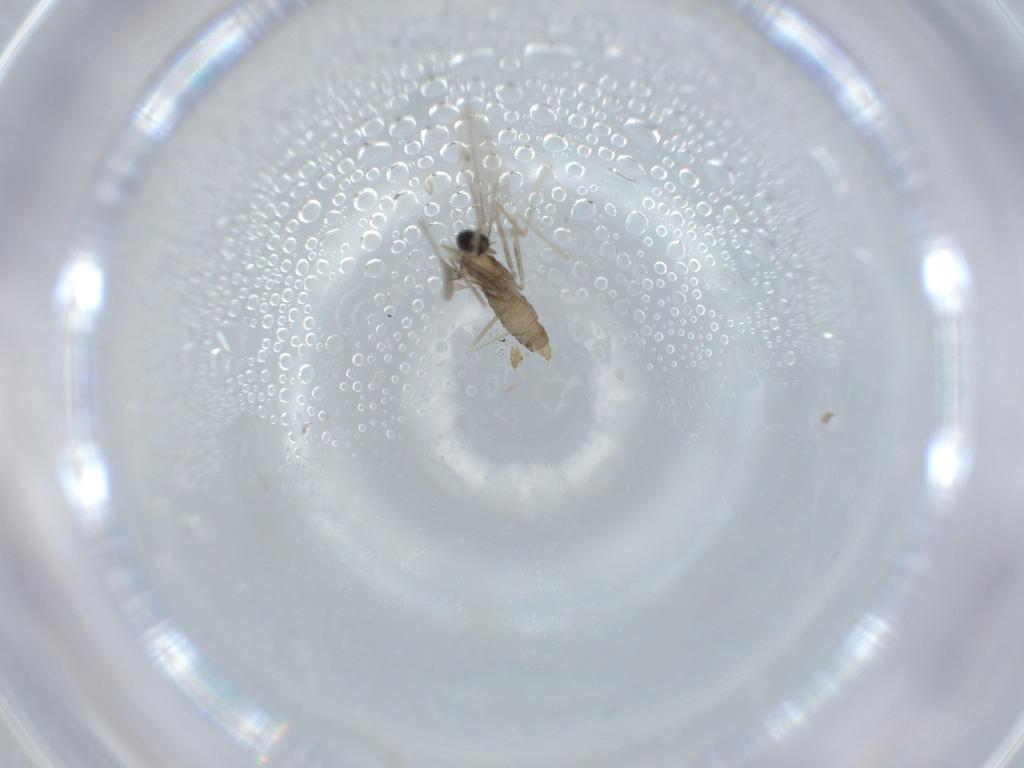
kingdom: Animalia
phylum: Arthropoda
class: Insecta
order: Diptera
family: Cecidomyiidae
